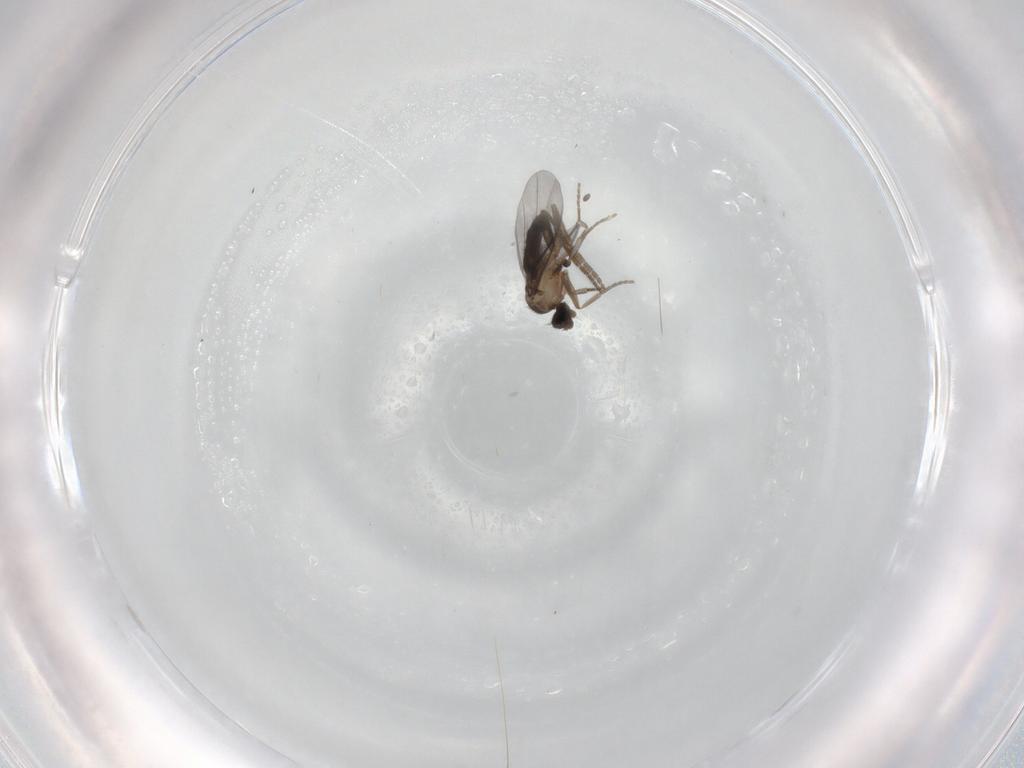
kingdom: Animalia
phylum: Arthropoda
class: Insecta
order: Diptera
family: Phoridae
